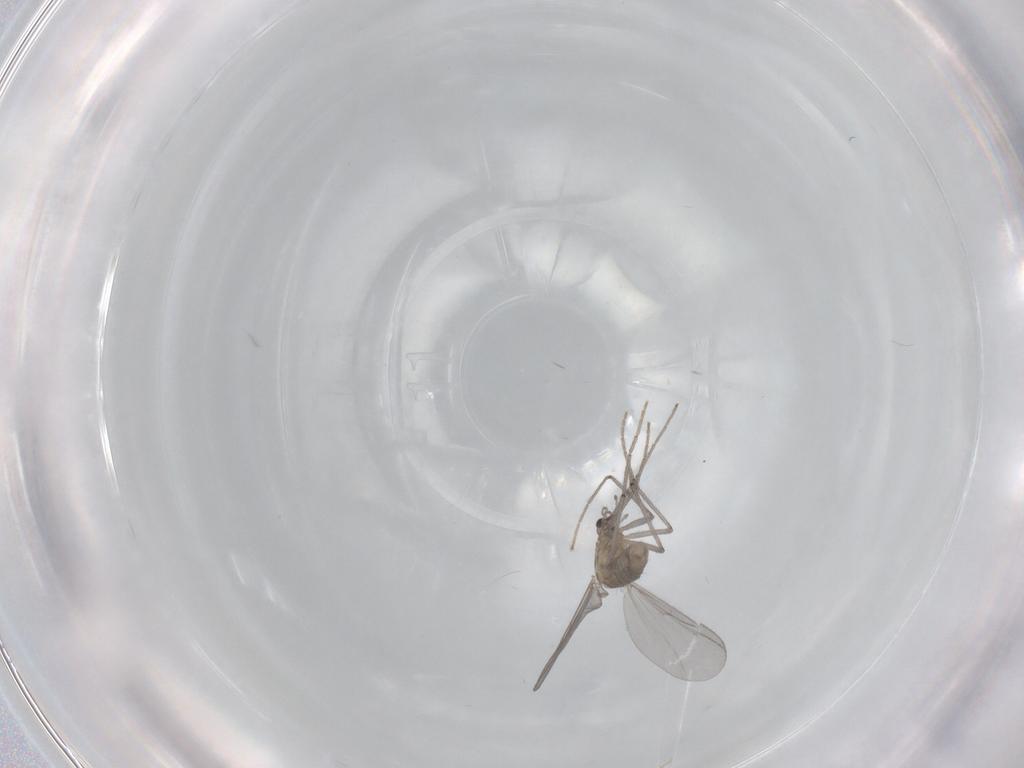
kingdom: Animalia
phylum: Arthropoda
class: Insecta
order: Diptera
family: Chironomidae
